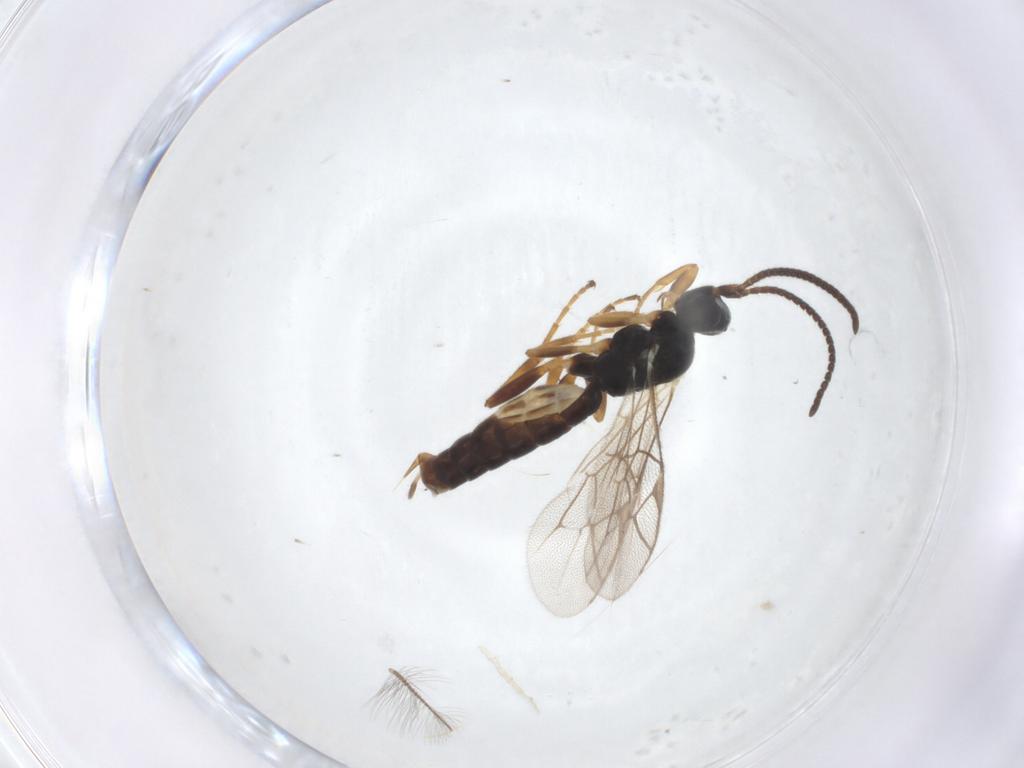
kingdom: Animalia
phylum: Arthropoda
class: Insecta
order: Hymenoptera
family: Ichneumonidae
